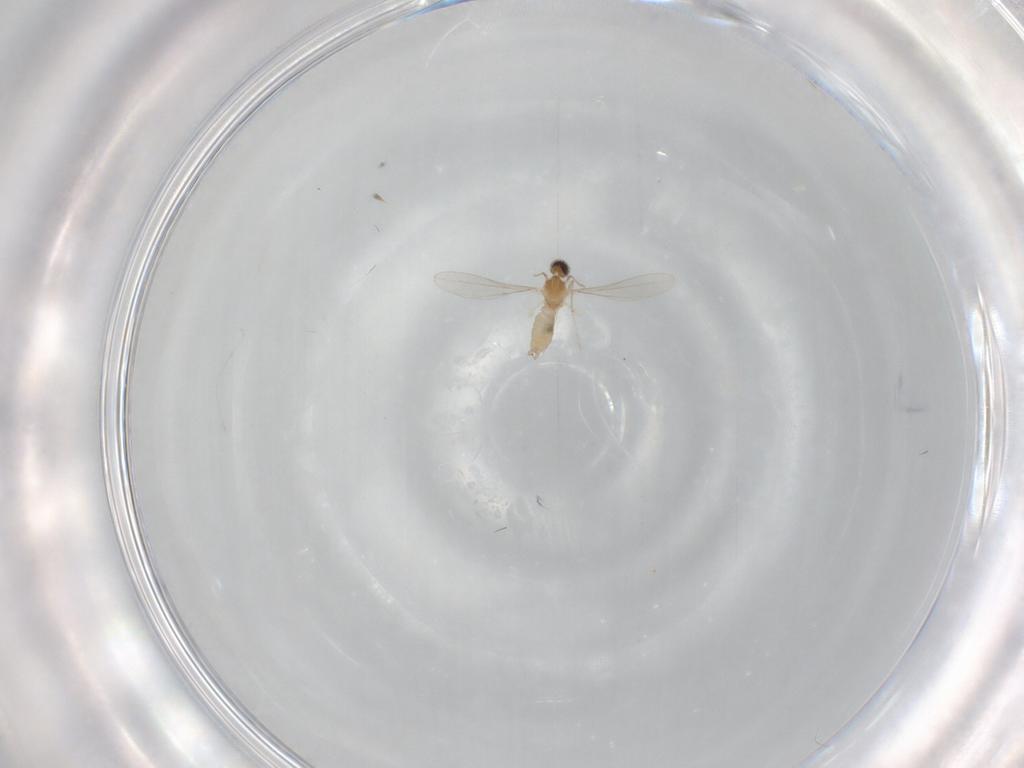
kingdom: Animalia
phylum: Arthropoda
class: Insecta
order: Diptera
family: Cecidomyiidae
